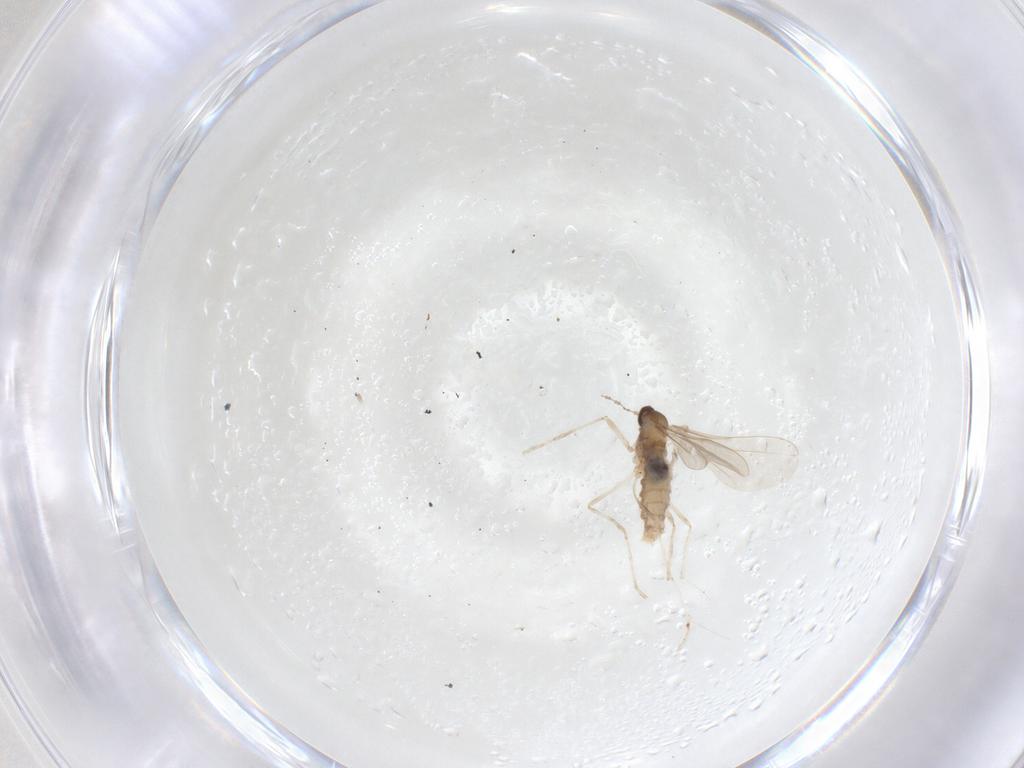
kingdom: Animalia
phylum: Arthropoda
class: Insecta
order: Diptera
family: Cecidomyiidae
